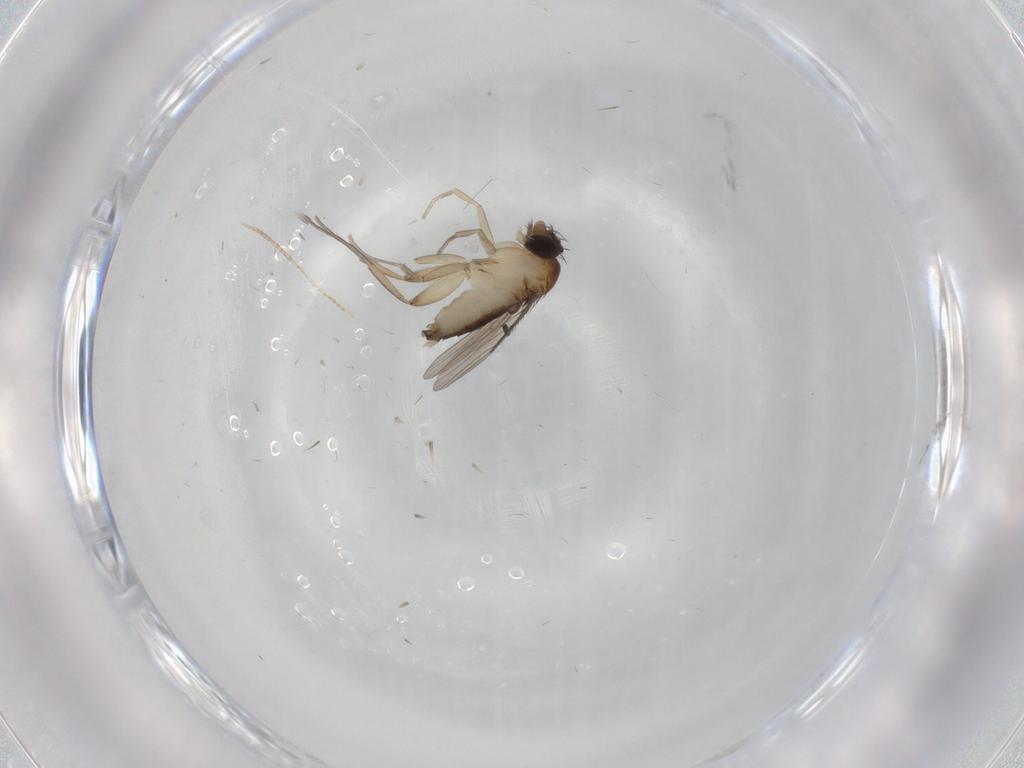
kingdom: Animalia
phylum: Arthropoda
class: Insecta
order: Diptera
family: Phoridae
